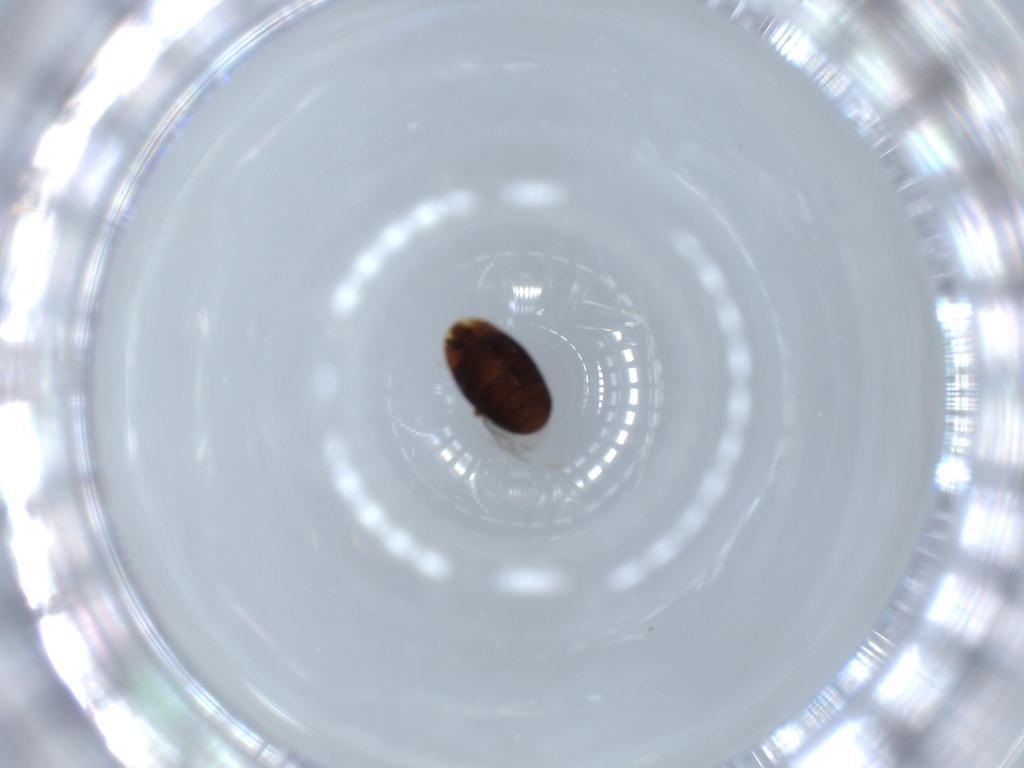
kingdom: Animalia
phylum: Arthropoda
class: Insecta
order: Coleoptera
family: Corylophidae
